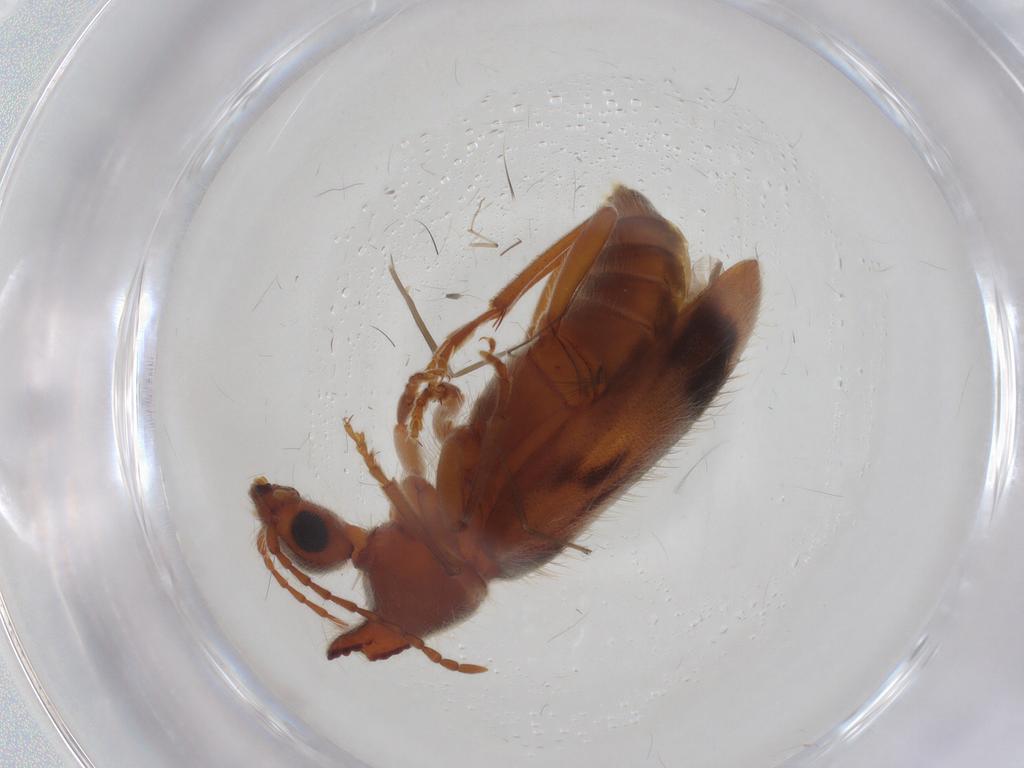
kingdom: Animalia
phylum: Arthropoda
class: Insecta
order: Coleoptera
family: Anthicidae
